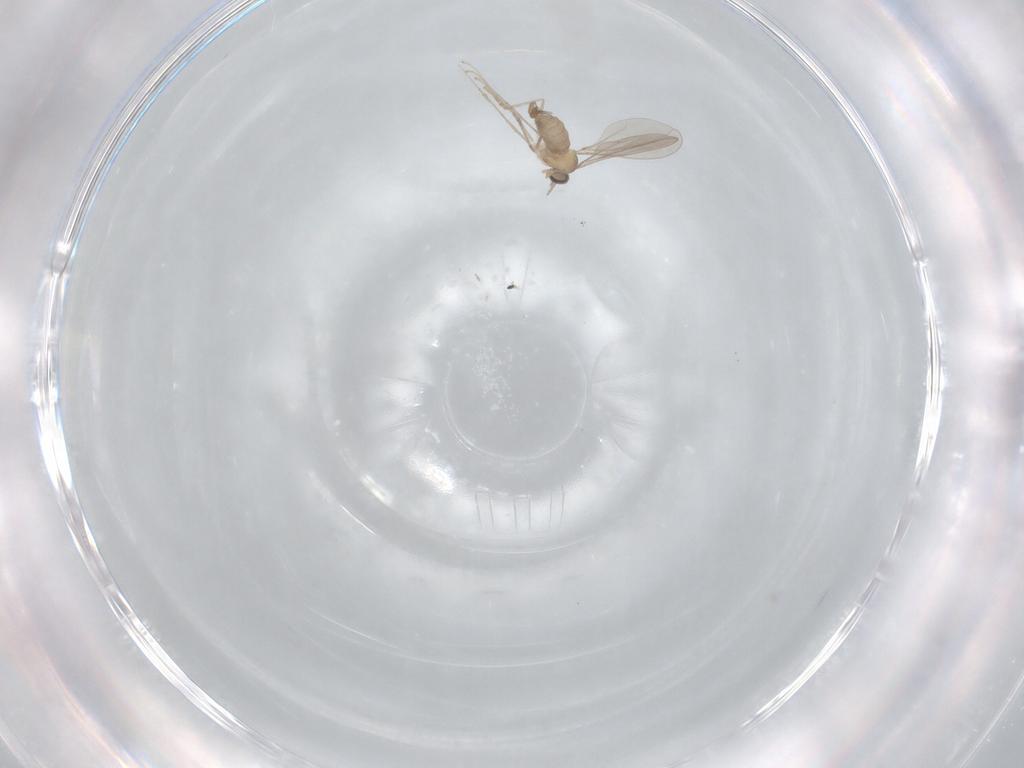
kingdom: Animalia
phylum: Arthropoda
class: Insecta
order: Diptera
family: Cecidomyiidae
